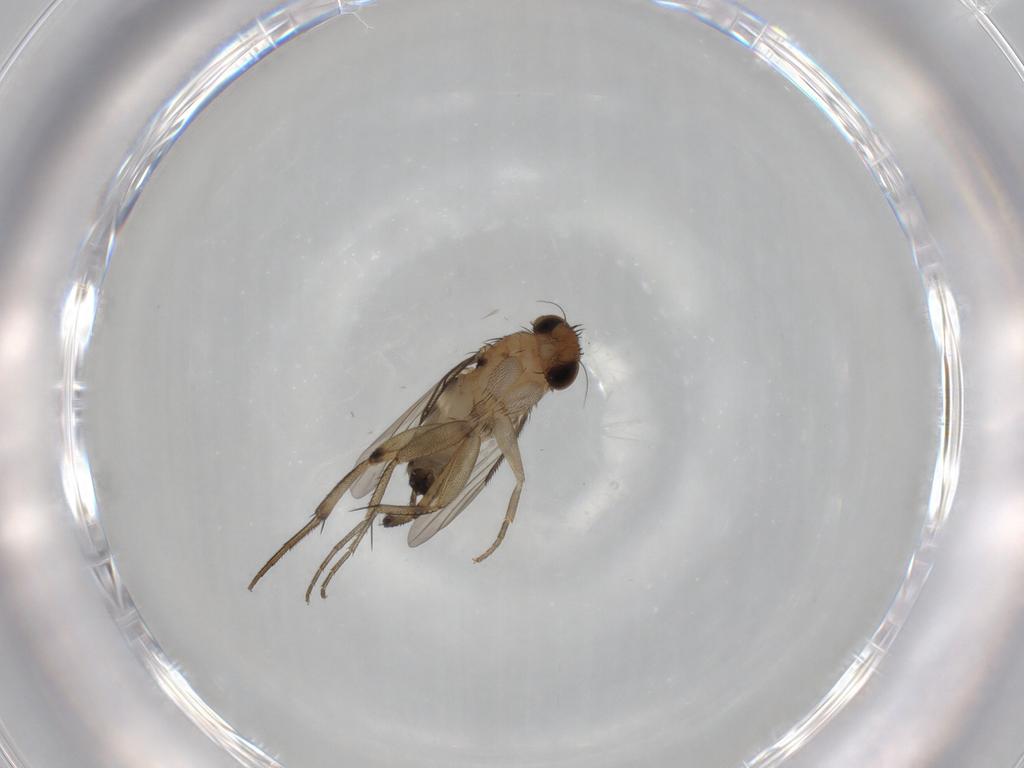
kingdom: Animalia
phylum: Arthropoda
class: Insecta
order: Diptera
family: Phoridae
